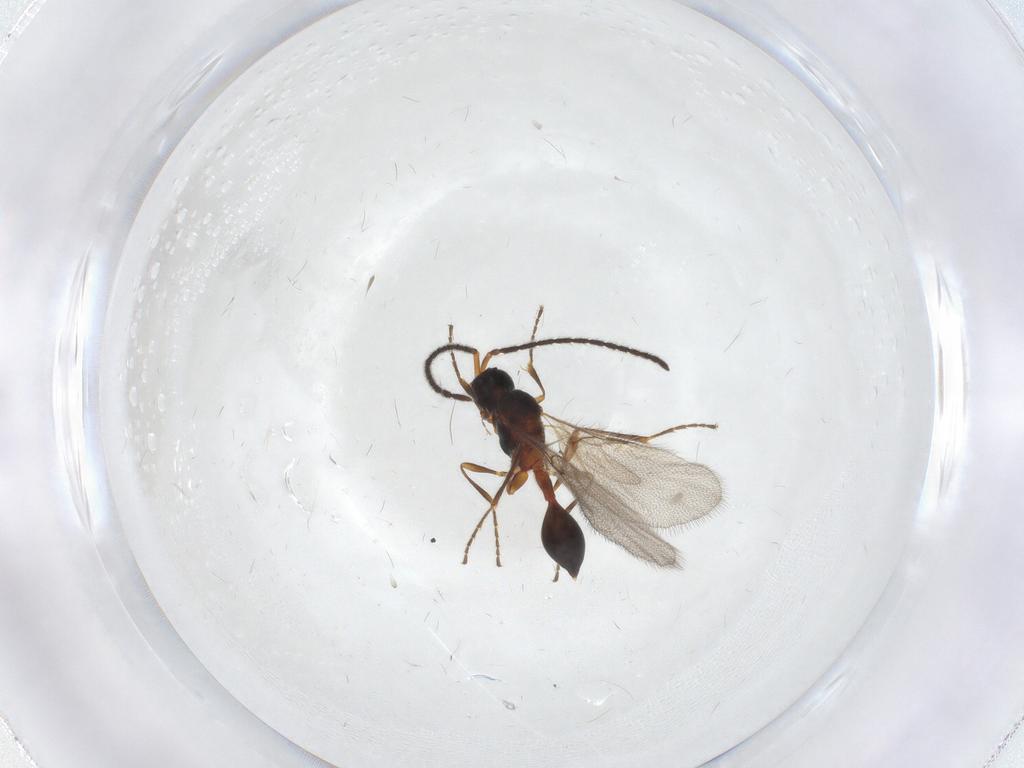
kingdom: Animalia
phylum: Arthropoda
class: Insecta
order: Hymenoptera
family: Diapriidae
